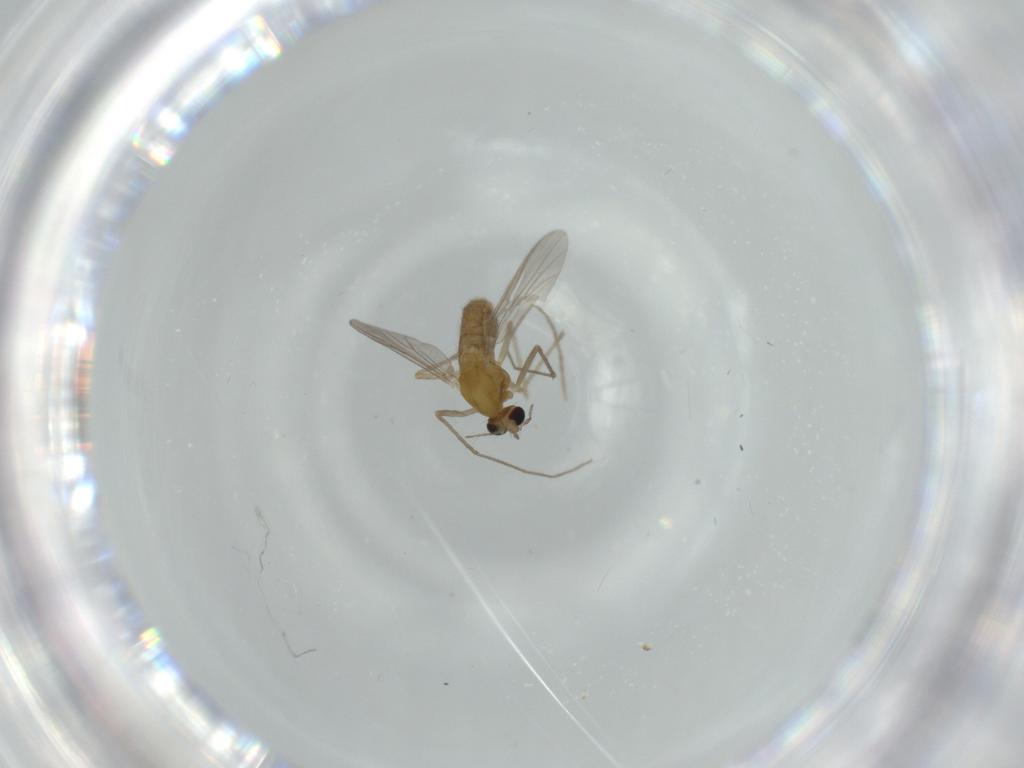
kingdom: Animalia
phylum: Arthropoda
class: Insecta
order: Diptera
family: Chironomidae
